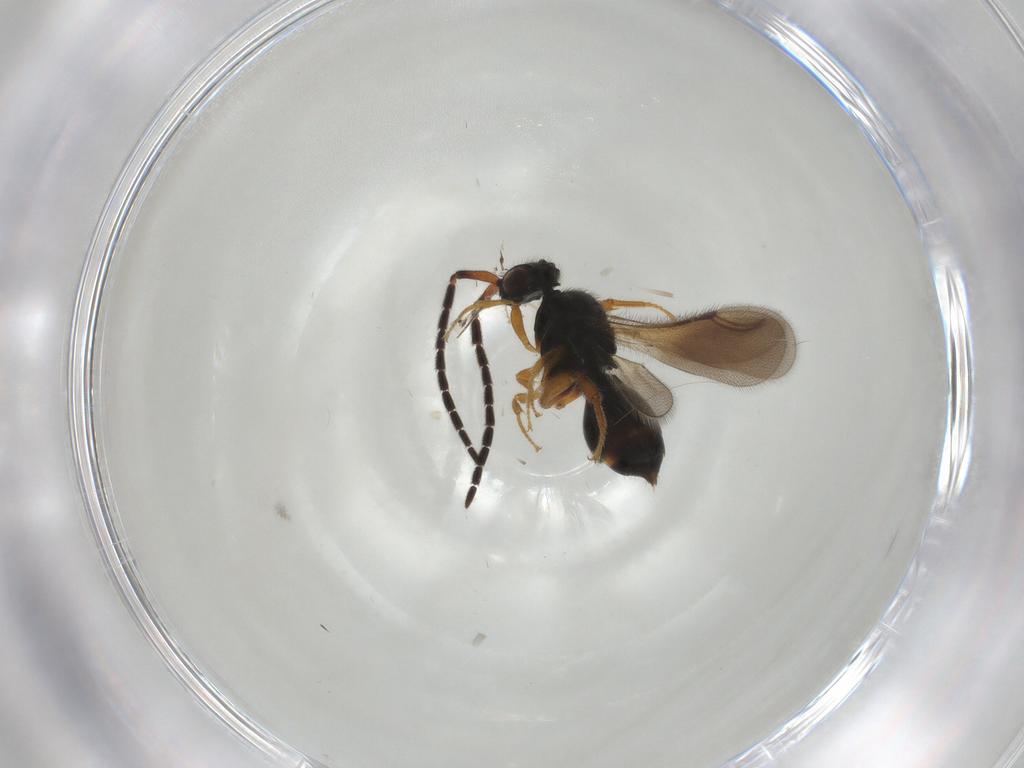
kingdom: Animalia
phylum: Arthropoda
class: Insecta
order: Hymenoptera
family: Ceraphronidae
